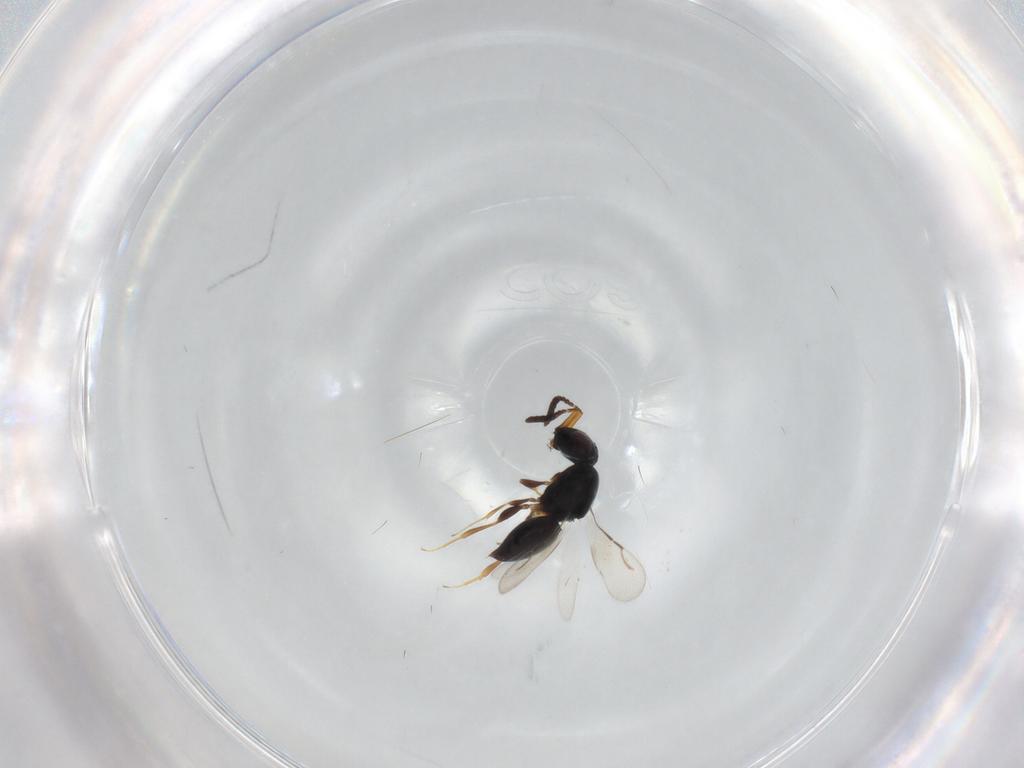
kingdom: Animalia
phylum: Arthropoda
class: Insecta
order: Hymenoptera
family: Ceraphronidae
